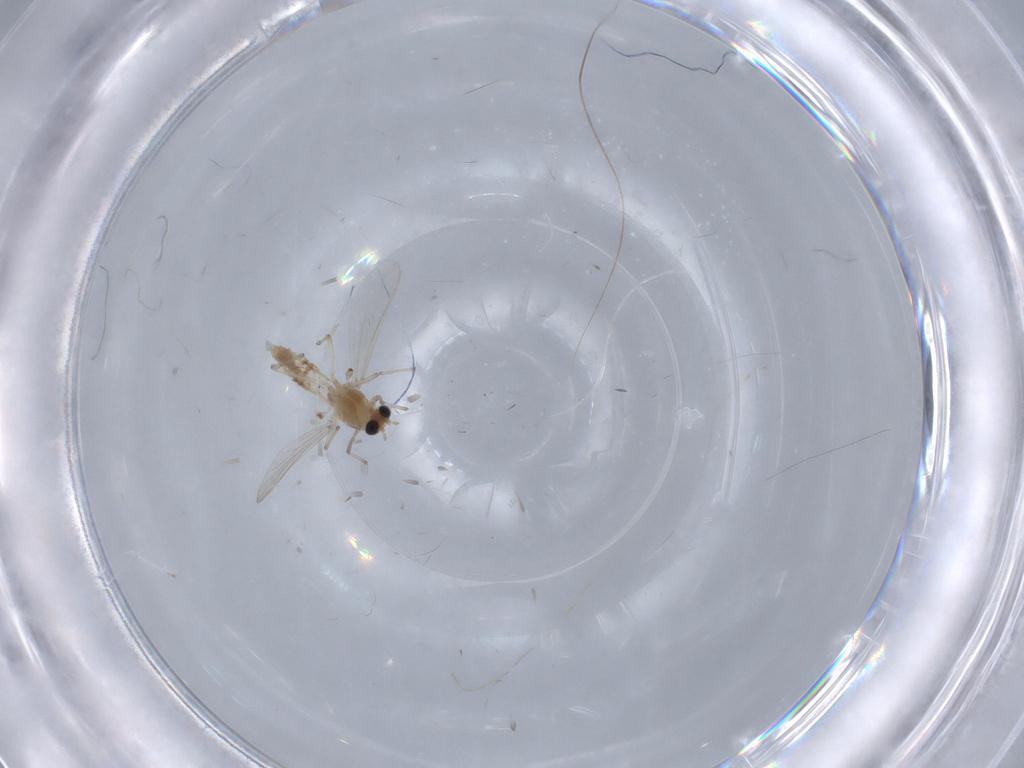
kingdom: Animalia
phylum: Arthropoda
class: Insecta
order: Diptera
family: Chironomidae
